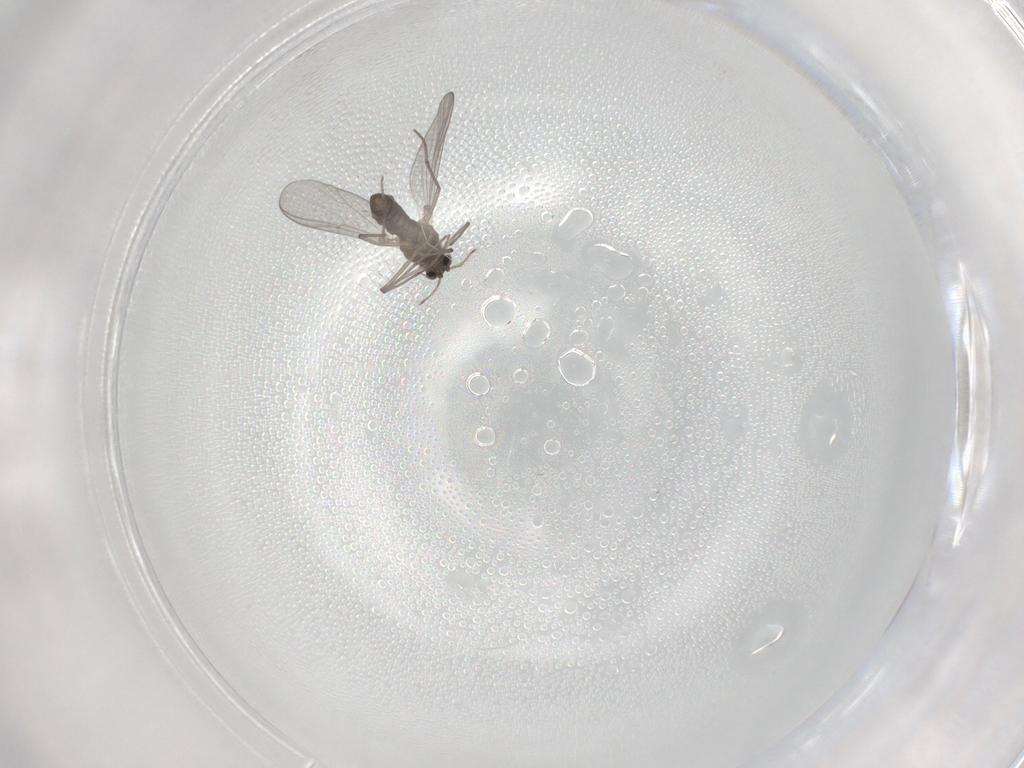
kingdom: Animalia
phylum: Arthropoda
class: Insecta
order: Diptera
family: Chironomidae
